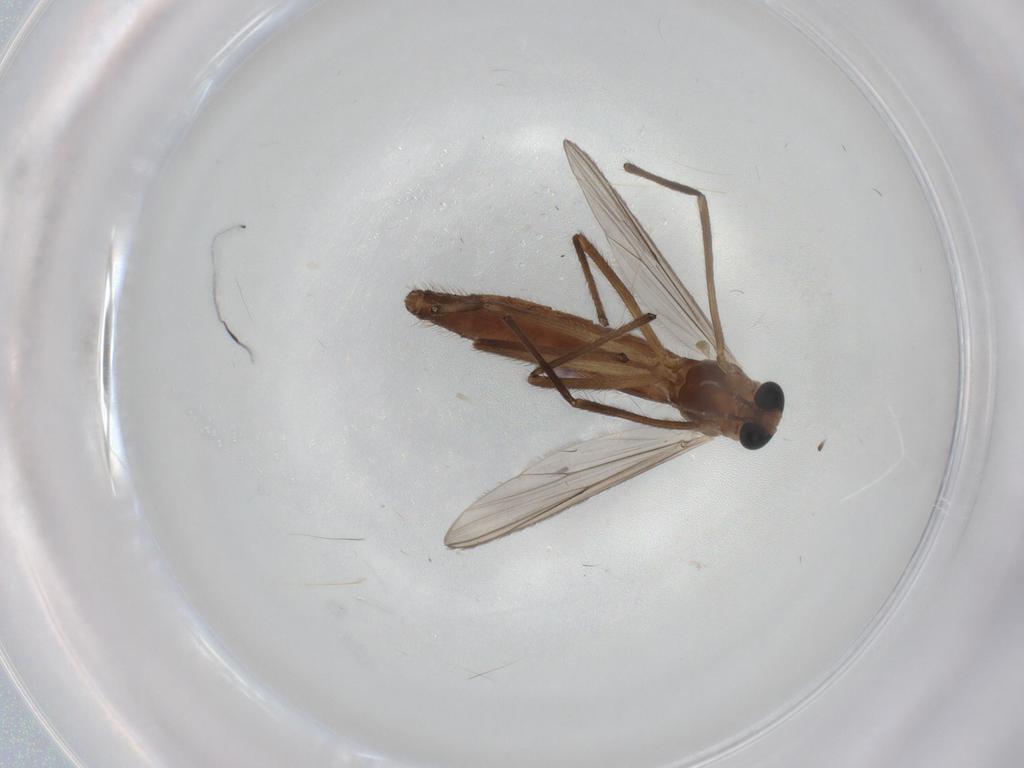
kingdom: Animalia
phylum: Arthropoda
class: Insecta
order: Diptera
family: Chironomidae
